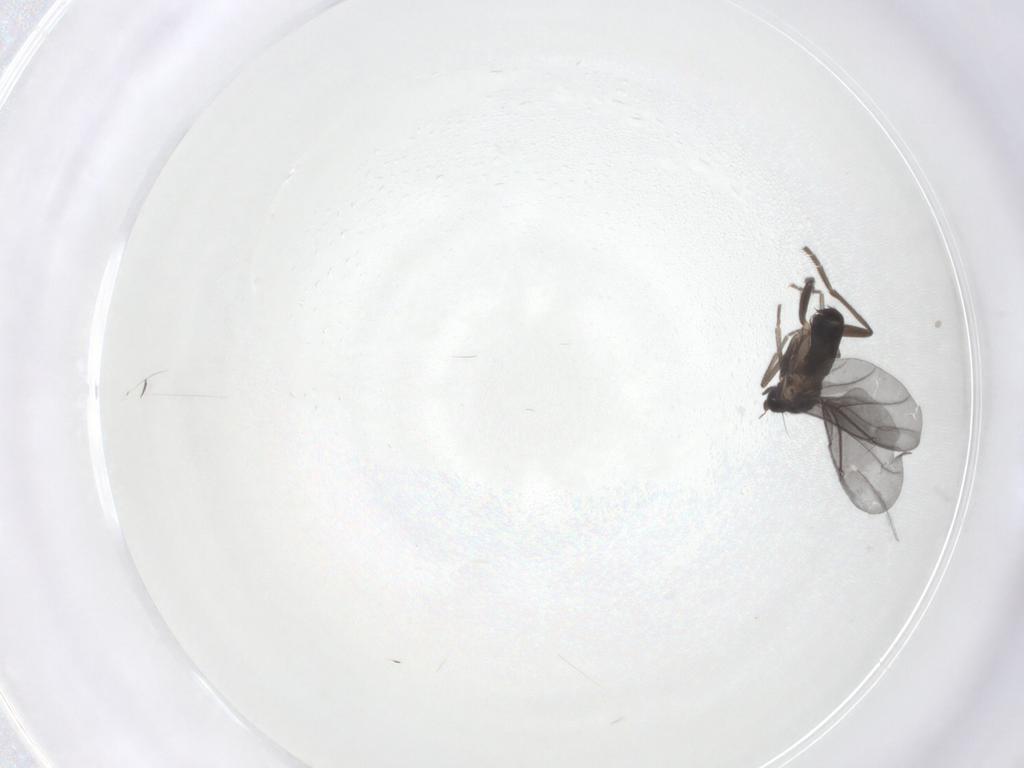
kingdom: Animalia
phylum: Arthropoda
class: Insecta
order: Diptera
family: Phoridae
